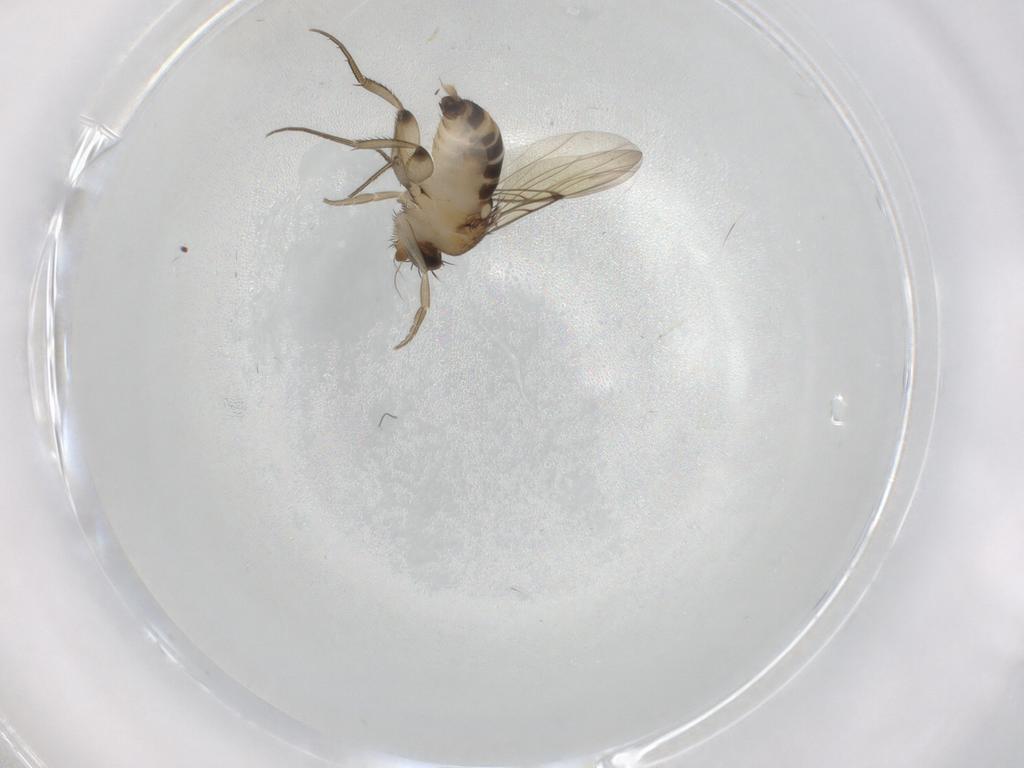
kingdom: Animalia
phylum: Arthropoda
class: Insecta
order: Diptera
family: Phoridae
